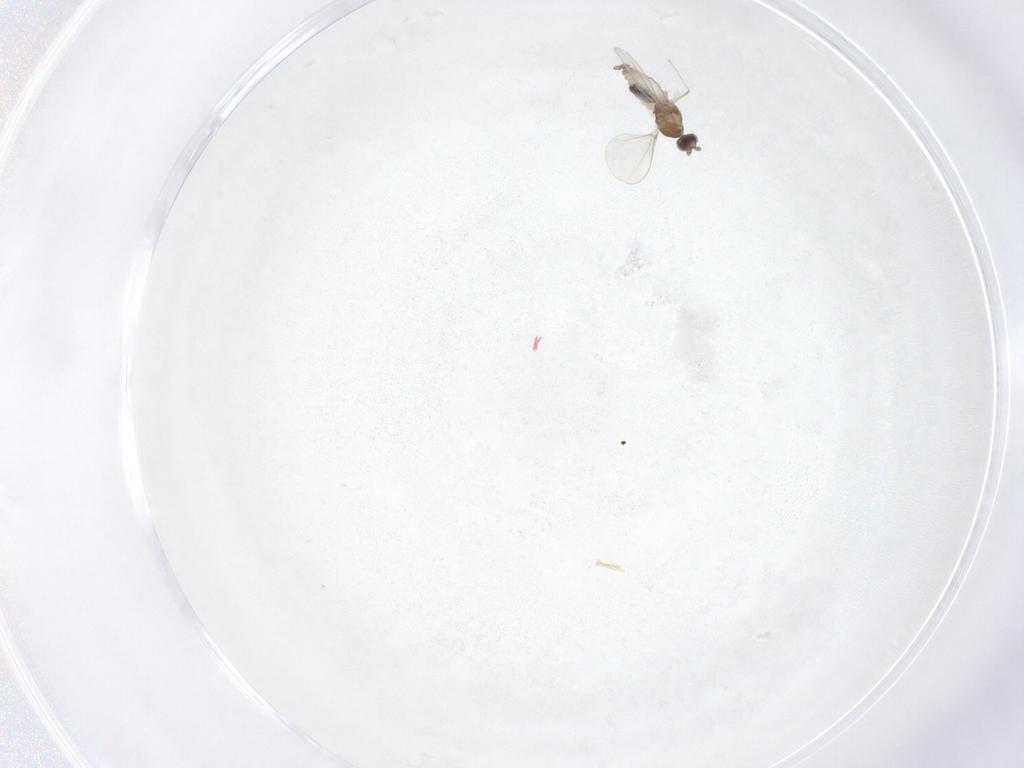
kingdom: Animalia
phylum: Arthropoda
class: Insecta
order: Diptera
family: Cecidomyiidae
